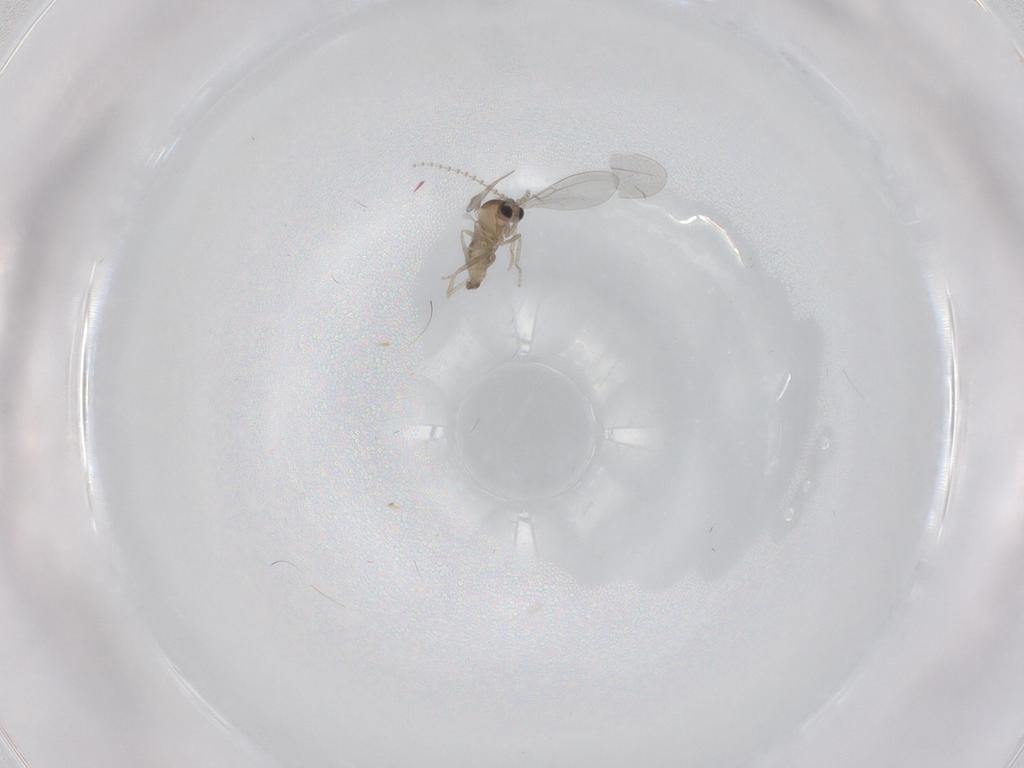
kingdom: Animalia
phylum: Arthropoda
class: Insecta
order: Diptera
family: Cecidomyiidae
